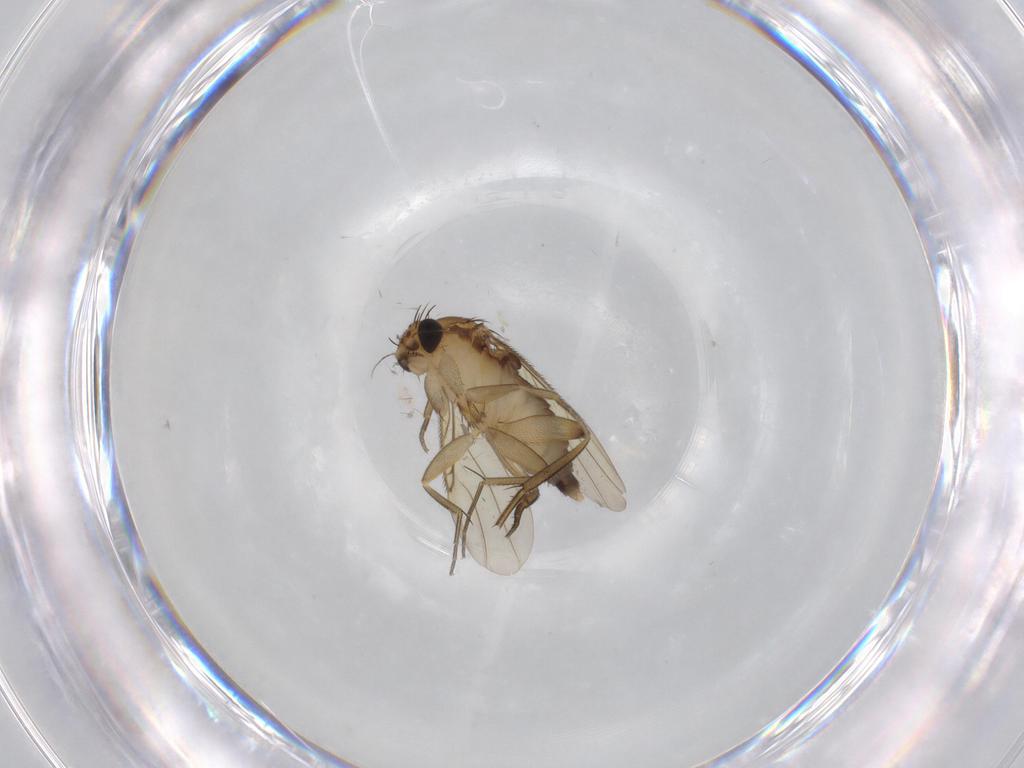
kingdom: Animalia
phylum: Arthropoda
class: Insecta
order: Diptera
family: Phoridae
